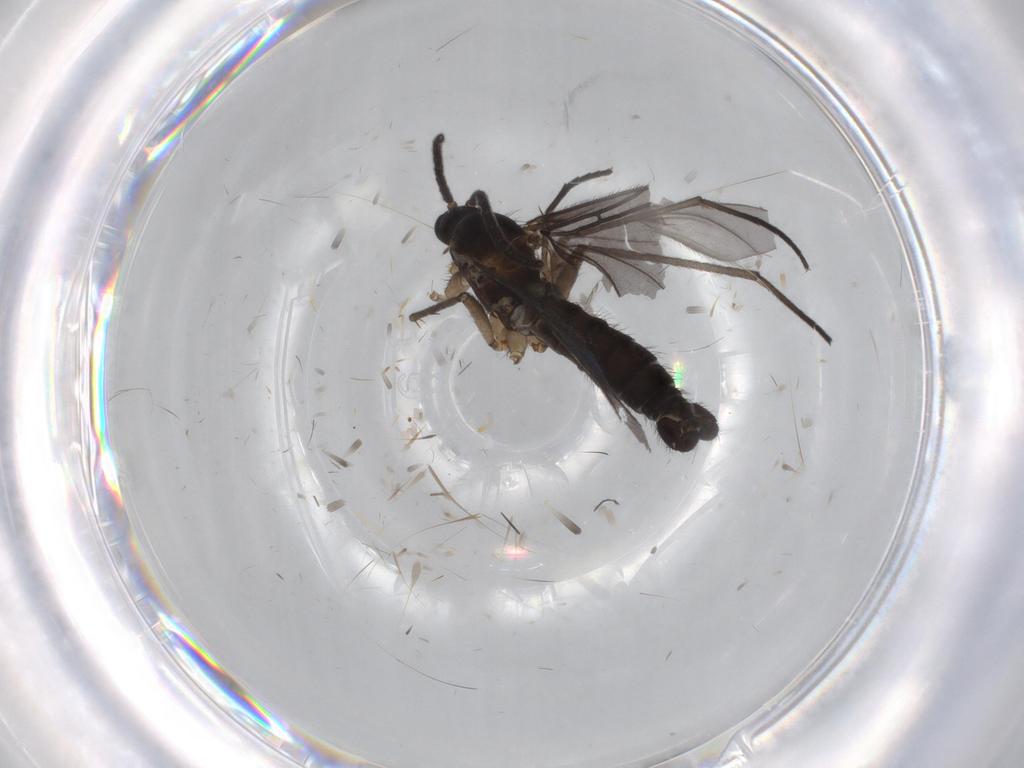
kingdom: Animalia
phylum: Arthropoda
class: Insecta
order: Diptera
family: Sciaridae
